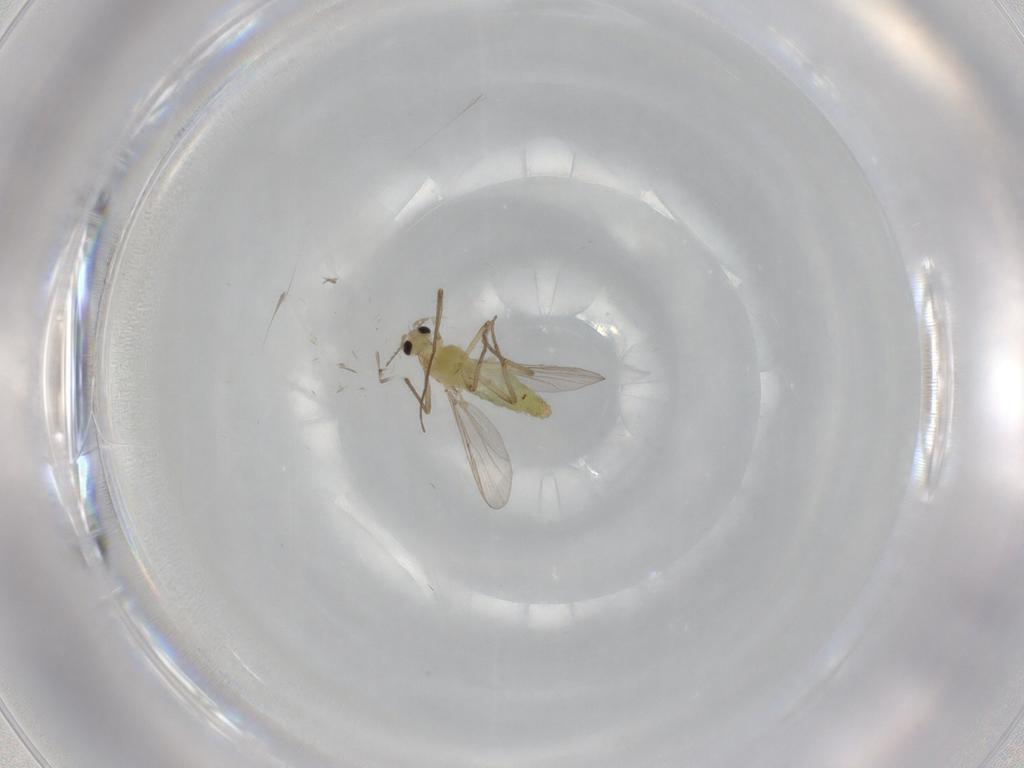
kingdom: Animalia
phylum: Arthropoda
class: Insecta
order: Diptera
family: Chironomidae
